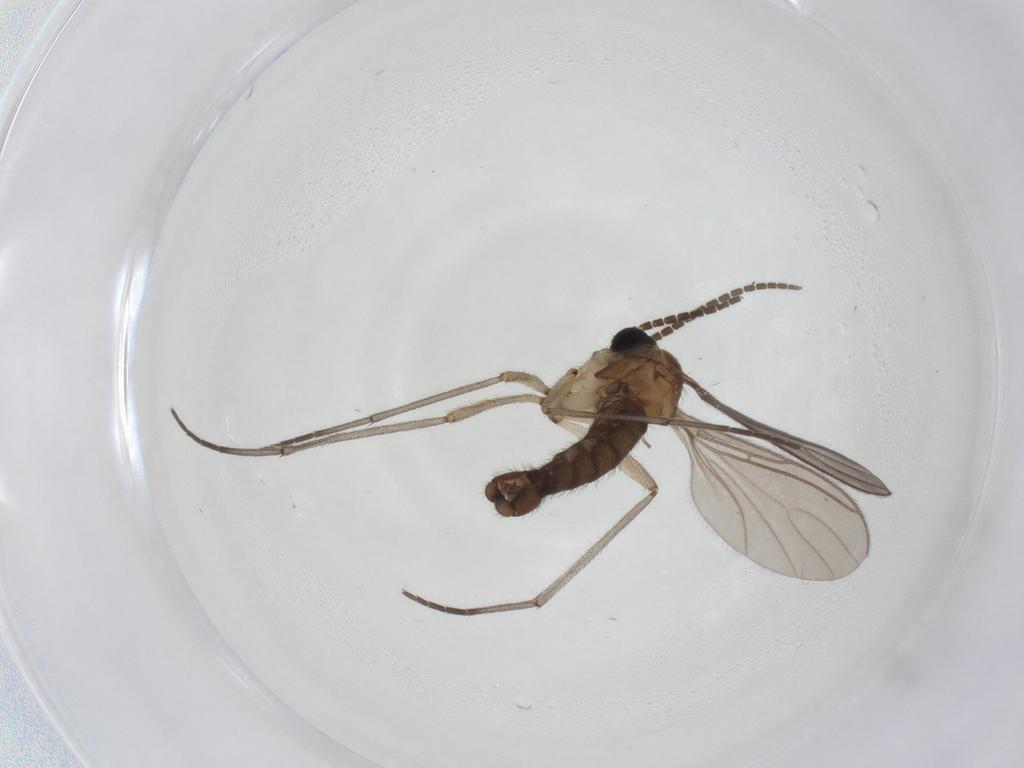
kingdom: Animalia
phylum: Arthropoda
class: Insecta
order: Diptera
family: Sciaridae
